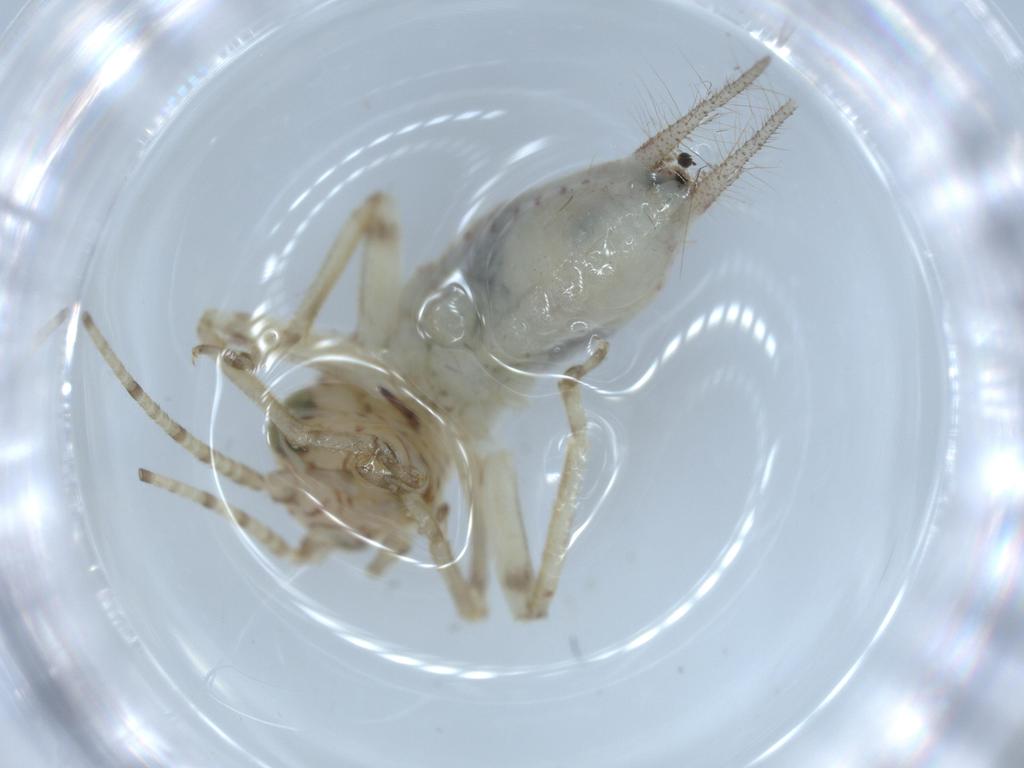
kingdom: Animalia
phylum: Arthropoda
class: Insecta
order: Orthoptera
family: Trigonidiidae
